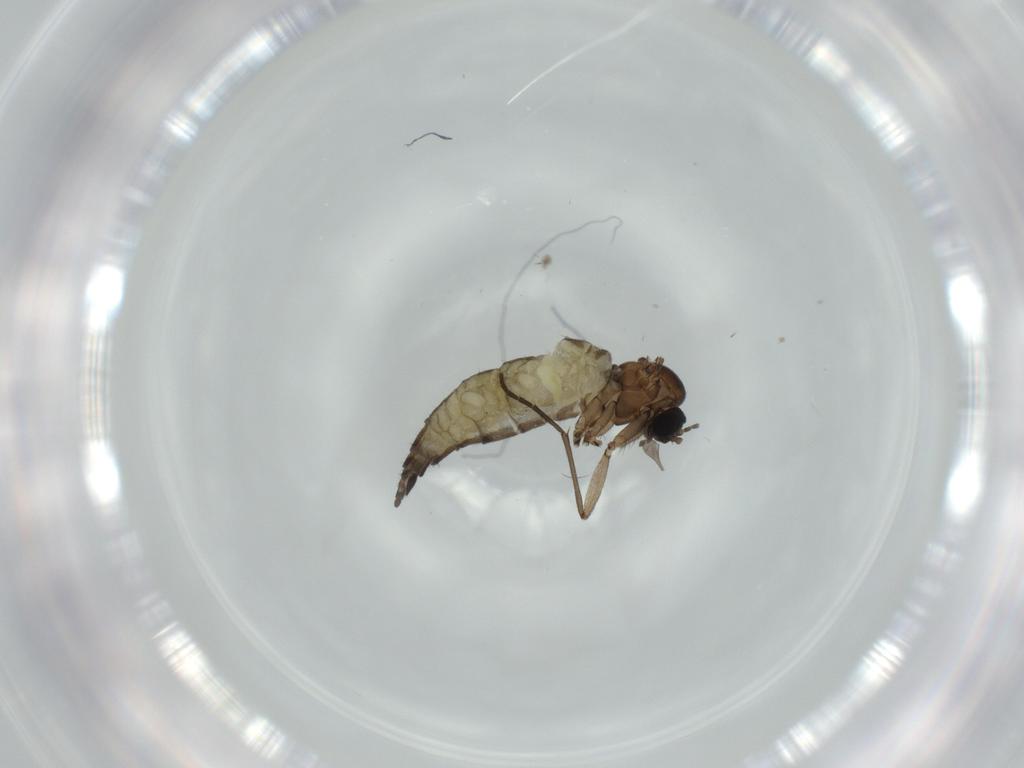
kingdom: Animalia
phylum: Arthropoda
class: Insecta
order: Diptera
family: Sciaridae
